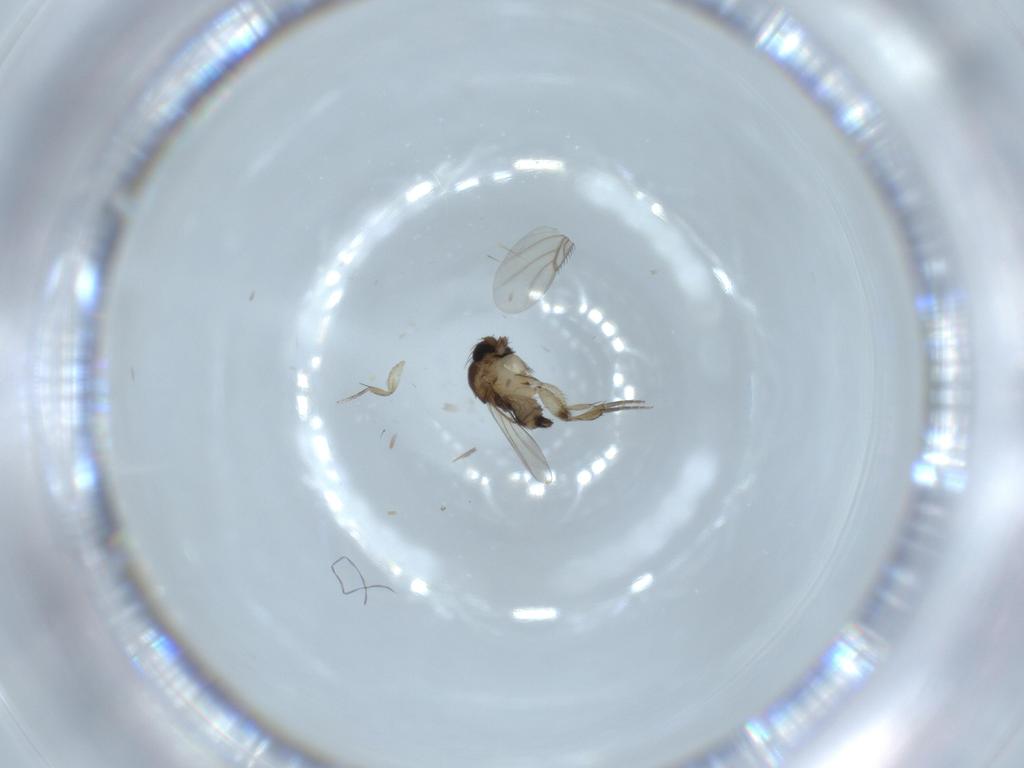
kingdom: Animalia
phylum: Arthropoda
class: Insecta
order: Diptera
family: Phoridae
